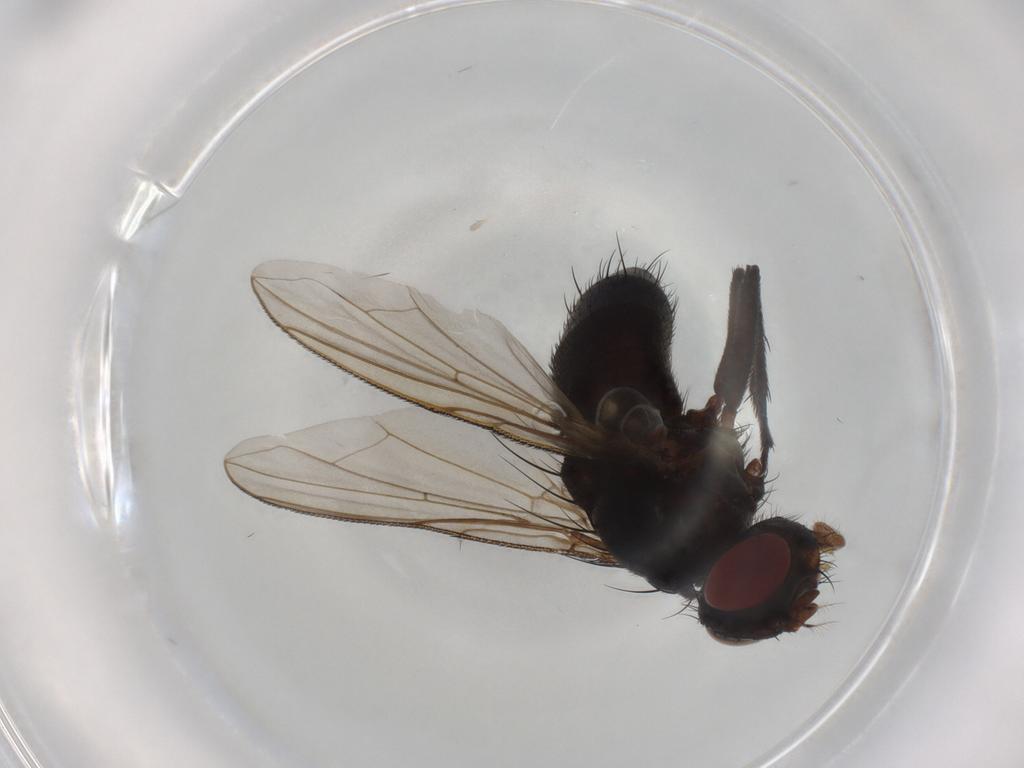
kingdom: Animalia
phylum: Arthropoda
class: Insecta
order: Diptera
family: Calliphoridae
